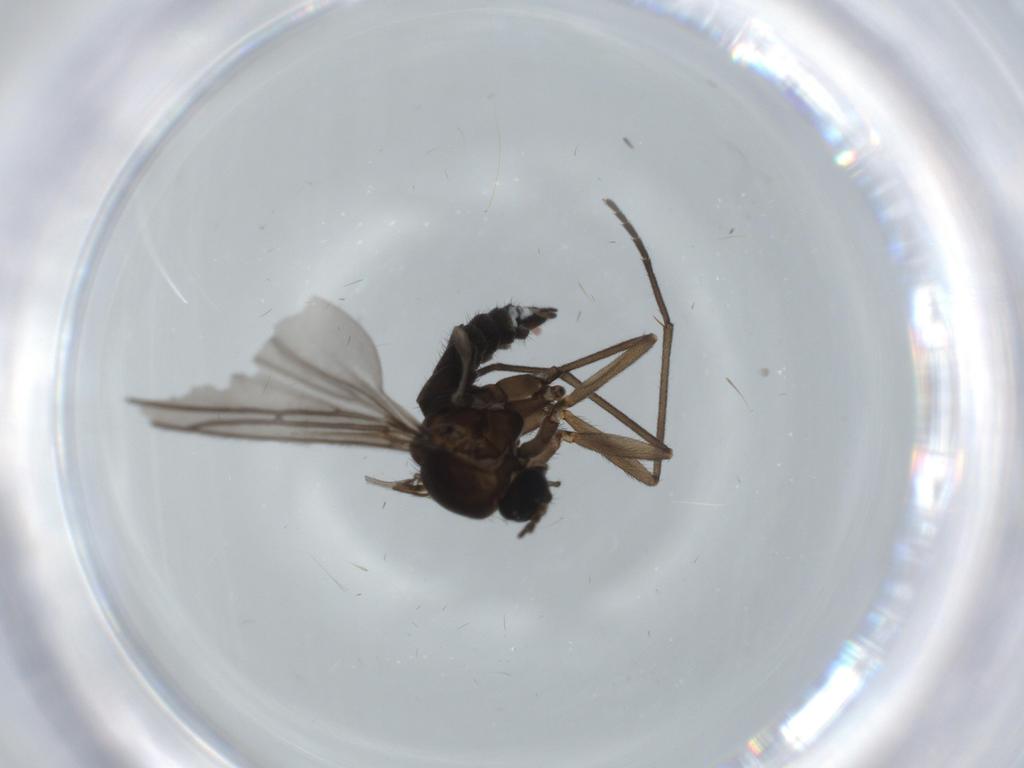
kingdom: Animalia
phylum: Arthropoda
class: Insecta
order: Diptera
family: Sciaridae
